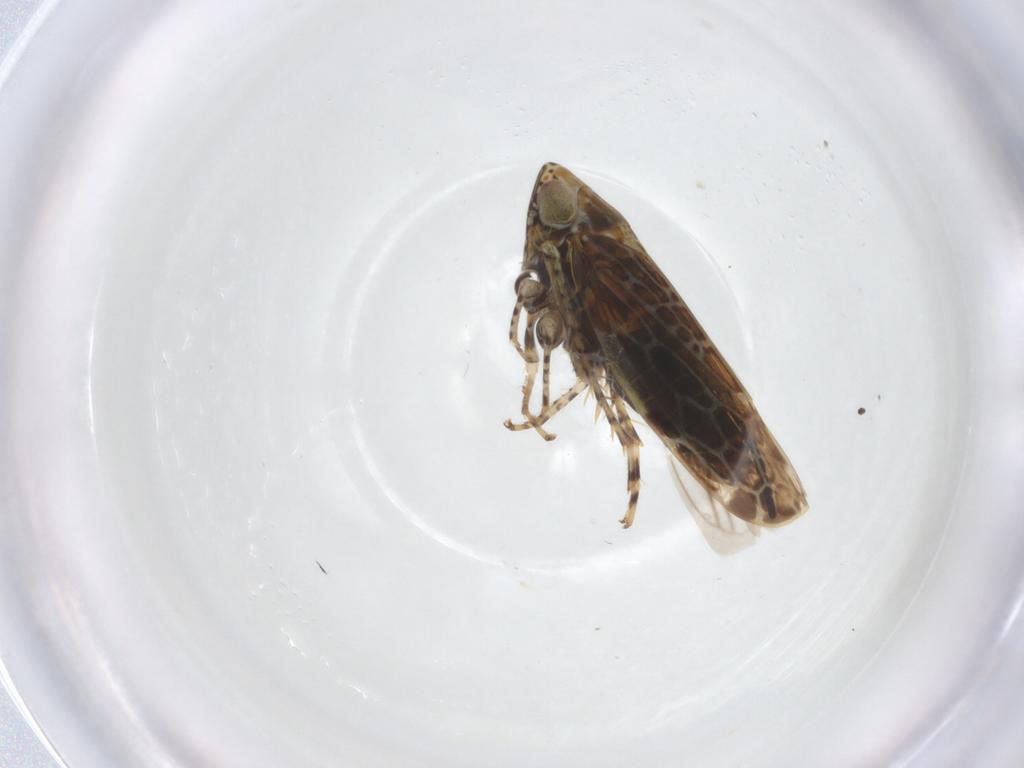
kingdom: Animalia
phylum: Arthropoda
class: Insecta
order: Hemiptera
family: Cicadellidae
